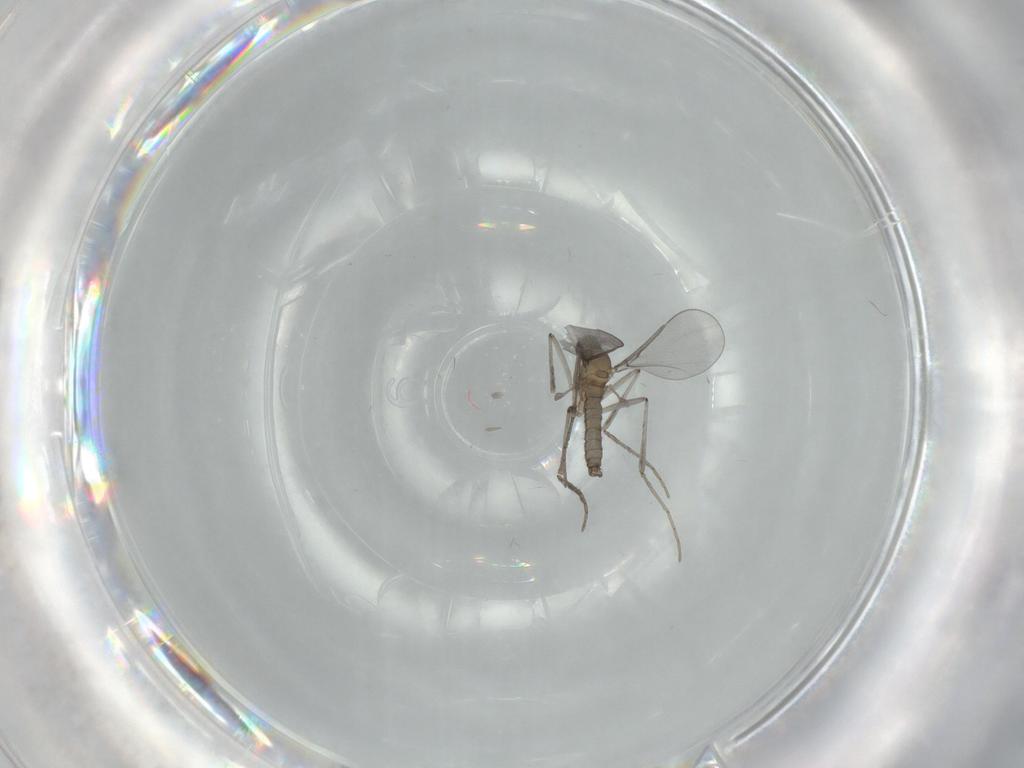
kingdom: Animalia
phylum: Arthropoda
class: Insecta
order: Diptera
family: Cecidomyiidae
